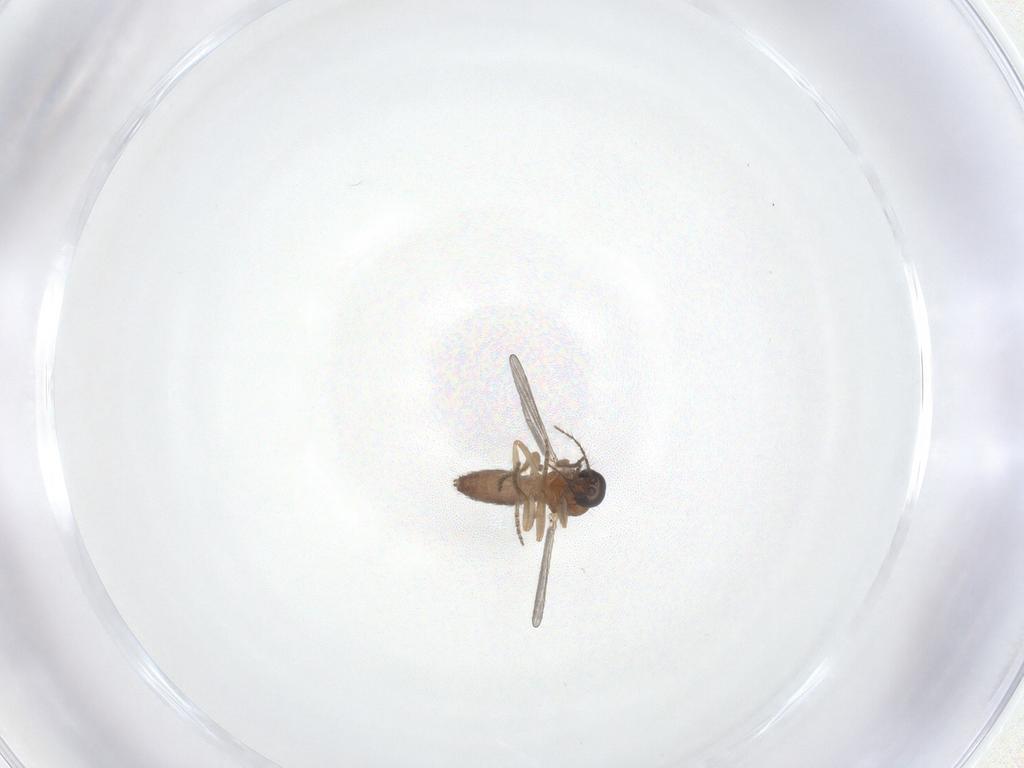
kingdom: Animalia
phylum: Arthropoda
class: Insecta
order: Diptera
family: Ceratopogonidae
